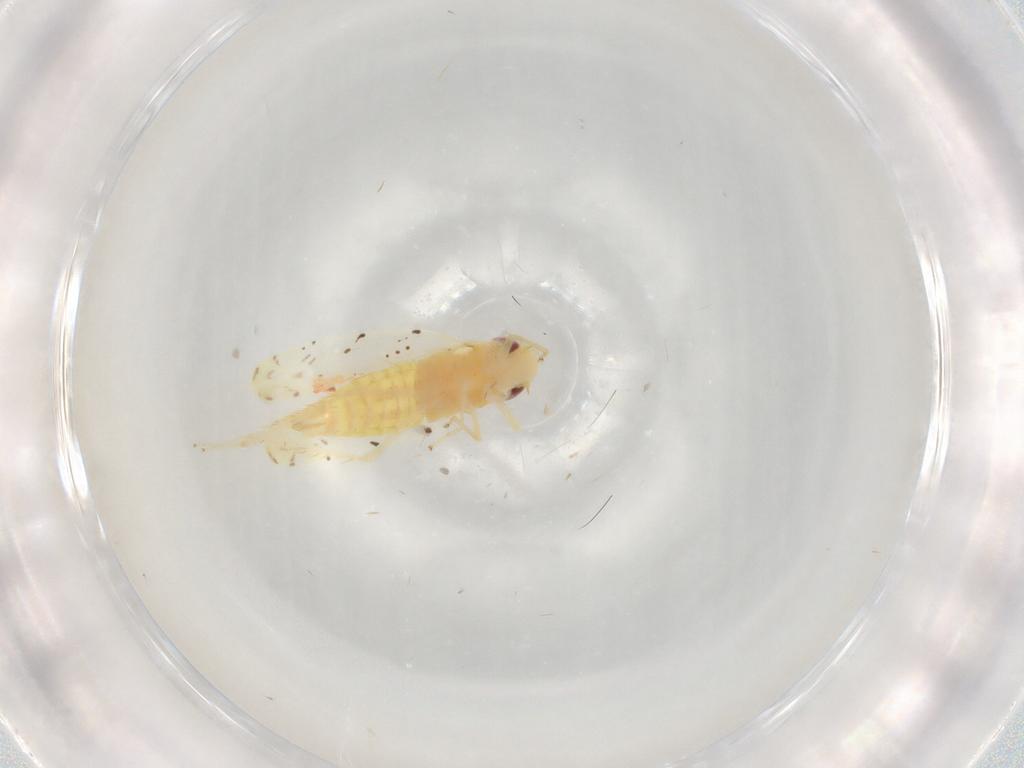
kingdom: Animalia
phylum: Arthropoda
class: Insecta
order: Hemiptera
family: Cicadellidae
